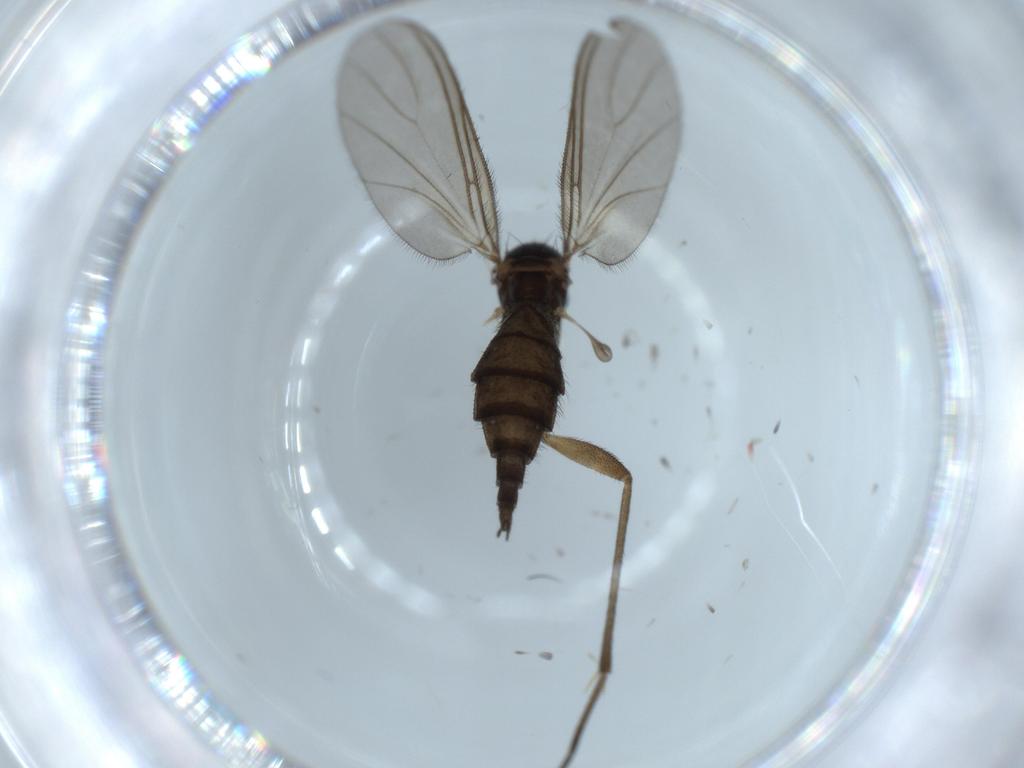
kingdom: Animalia
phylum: Arthropoda
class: Insecta
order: Diptera
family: Sciaridae
